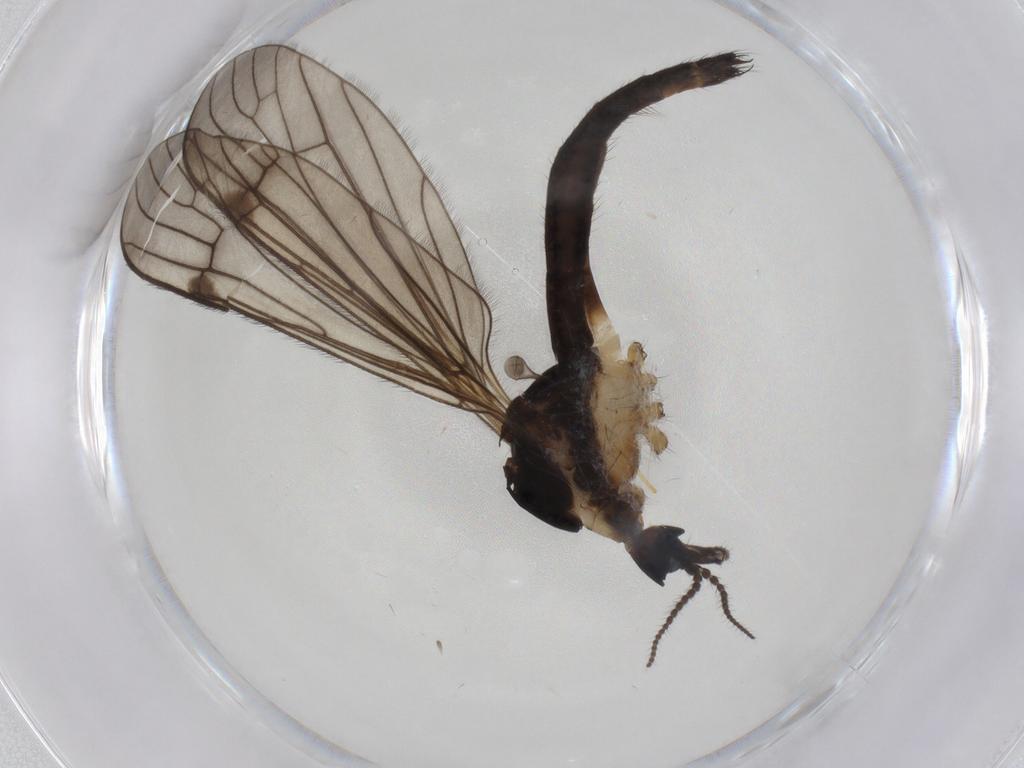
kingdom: Animalia
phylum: Arthropoda
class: Insecta
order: Diptera
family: Limoniidae
